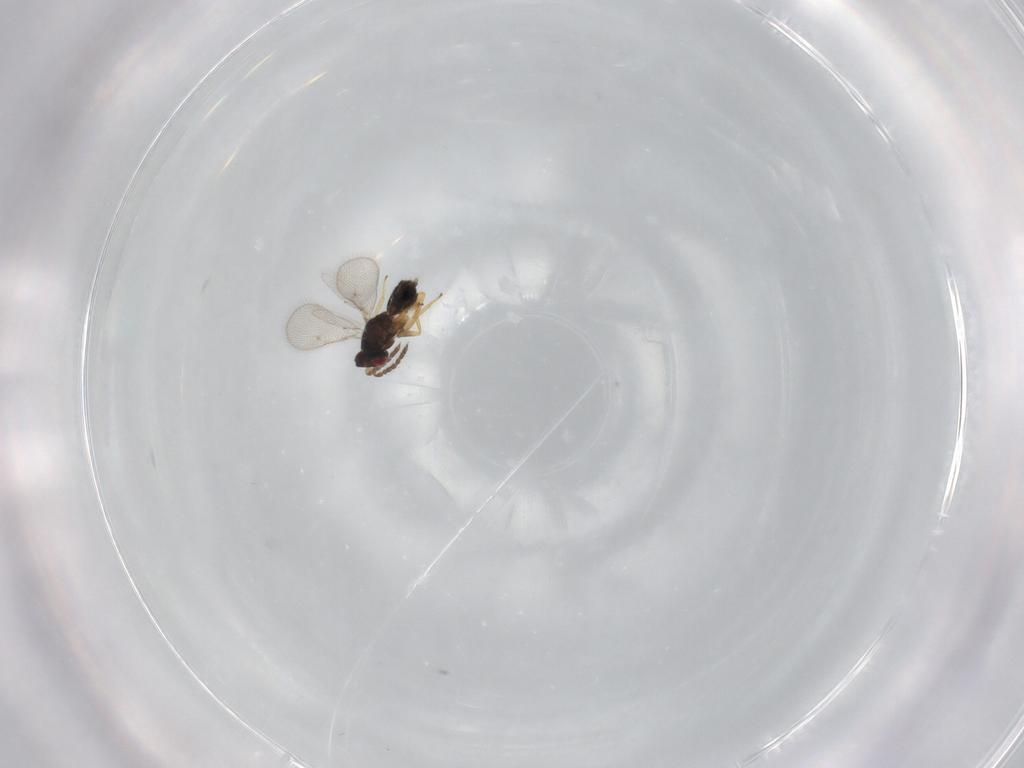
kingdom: Animalia
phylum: Arthropoda
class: Insecta
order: Hymenoptera
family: Eulophidae
